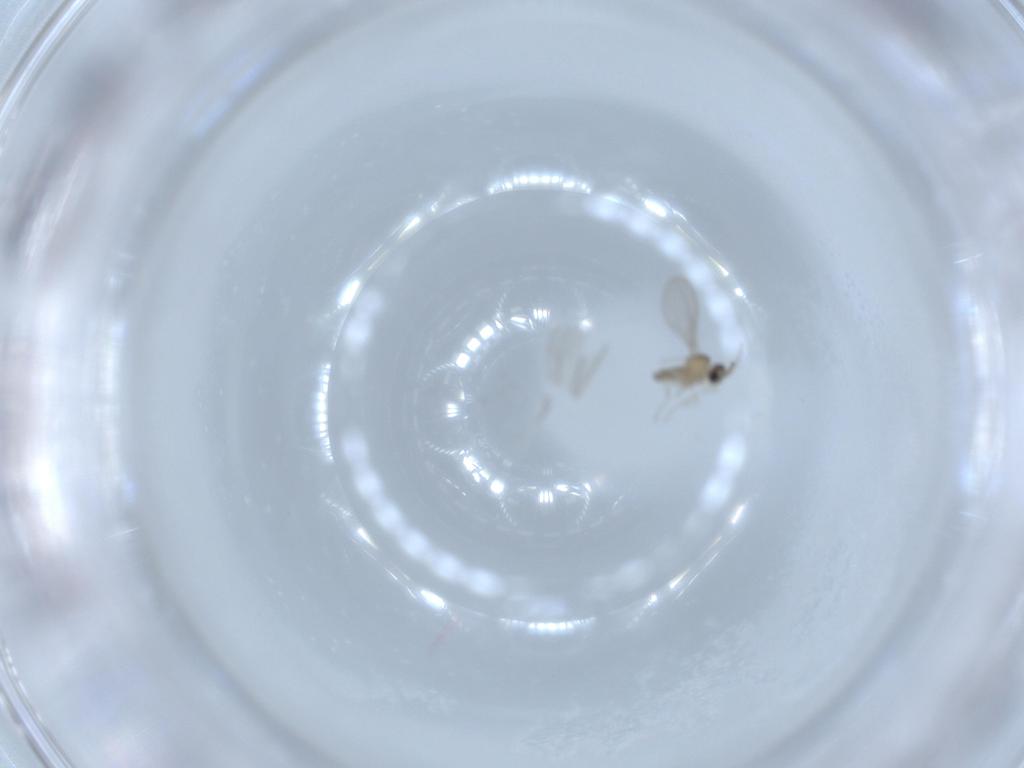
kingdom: Animalia
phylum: Arthropoda
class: Insecta
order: Diptera
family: Cecidomyiidae
